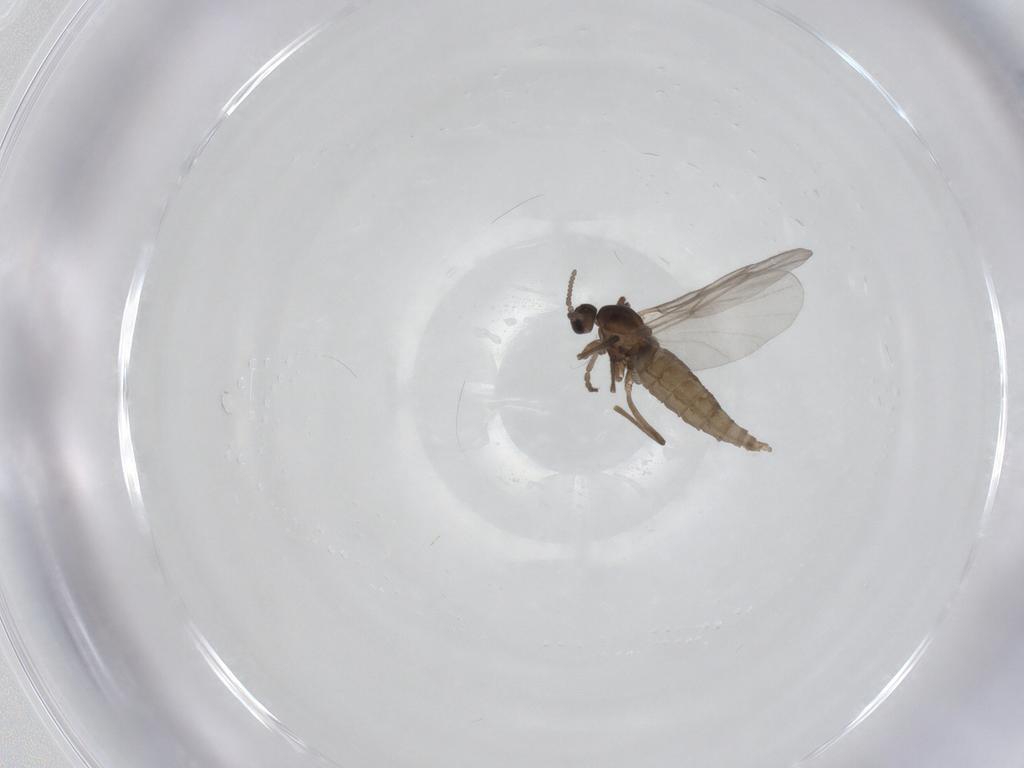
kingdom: Animalia
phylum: Arthropoda
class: Insecta
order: Diptera
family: Cecidomyiidae
